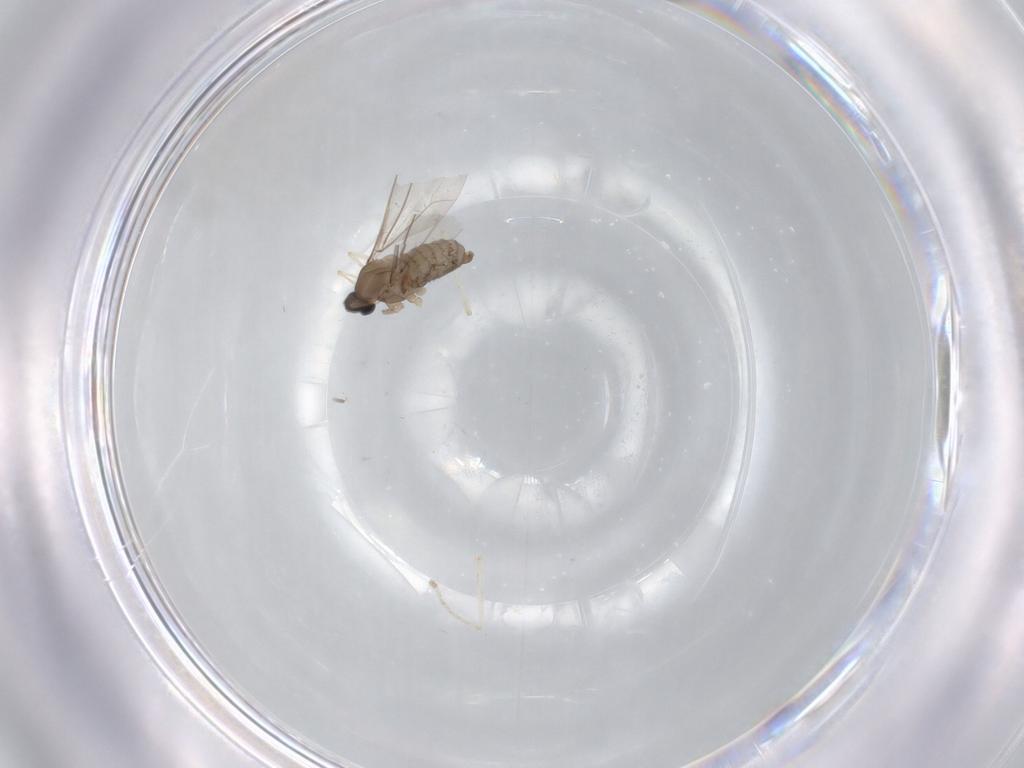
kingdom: Animalia
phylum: Arthropoda
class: Insecta
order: Diptera
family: Cecidomyiidae
